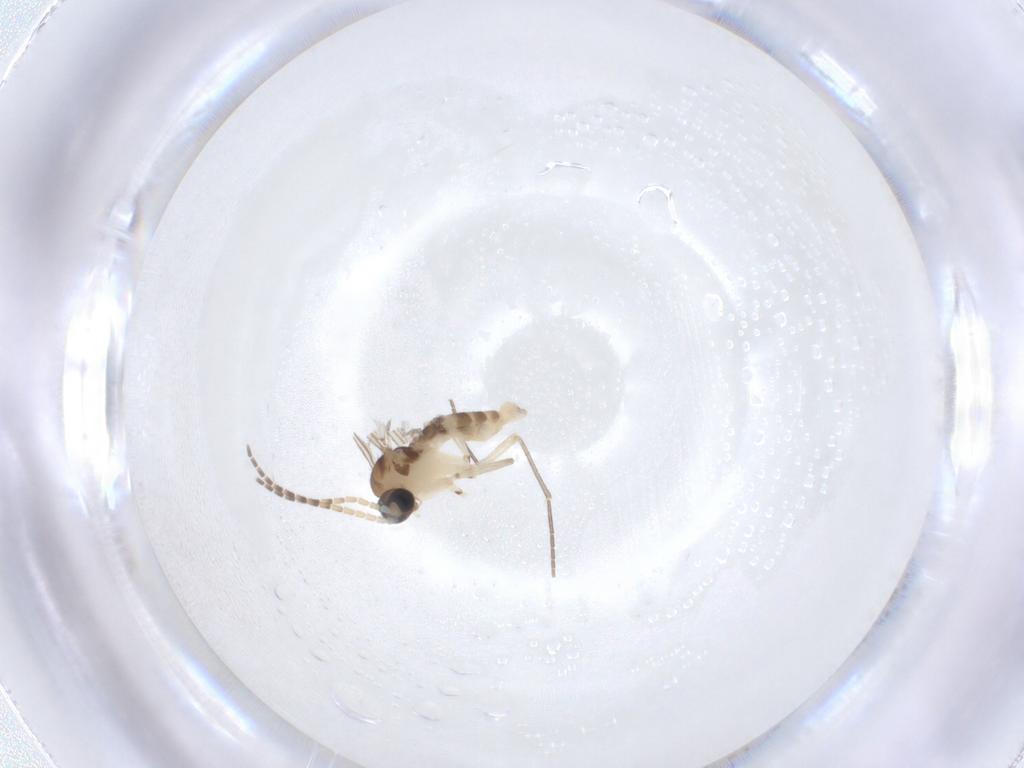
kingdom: Animalia
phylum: Arthropoda
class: Insecta
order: Diptera
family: Sciaridae
